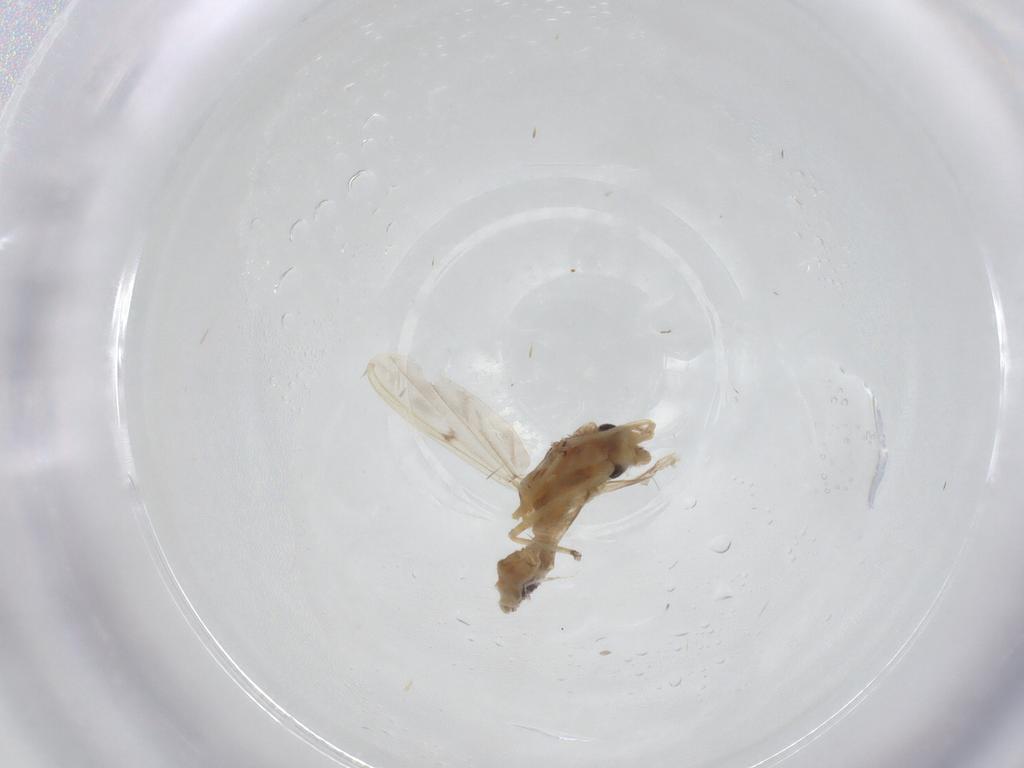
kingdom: Animalia
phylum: Arthropoda
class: Insecta
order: Diptera
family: Chironomidae
